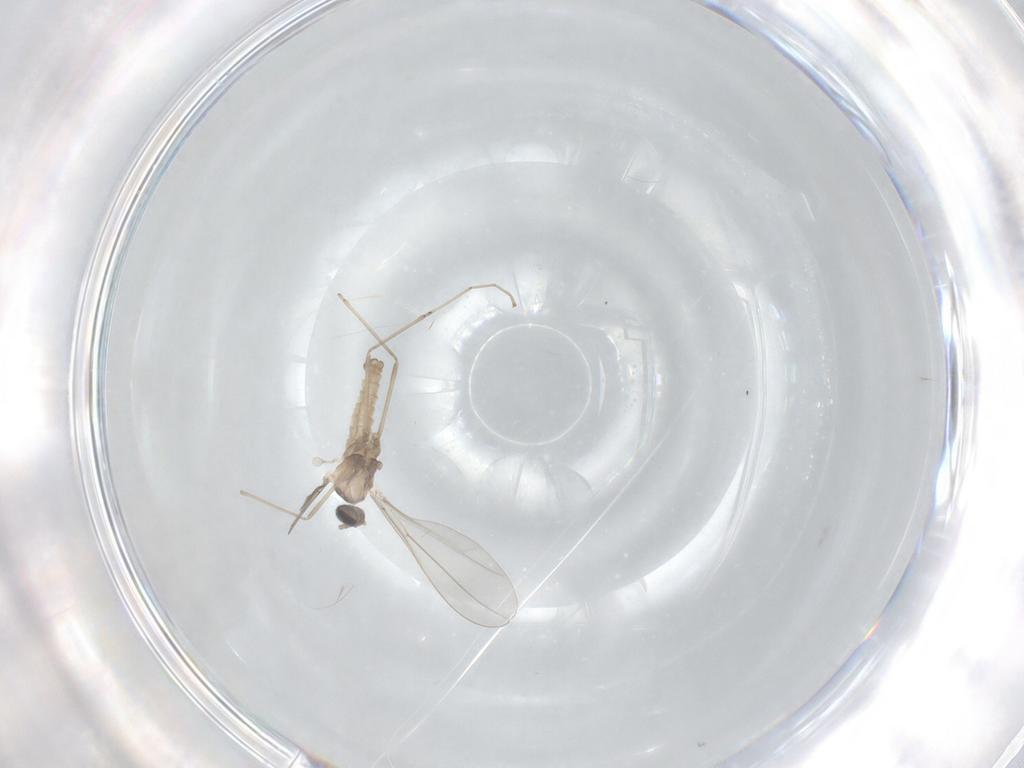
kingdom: Animalia
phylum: Arthropoda
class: Insecta
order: Diptera
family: Cecidomyiidae
